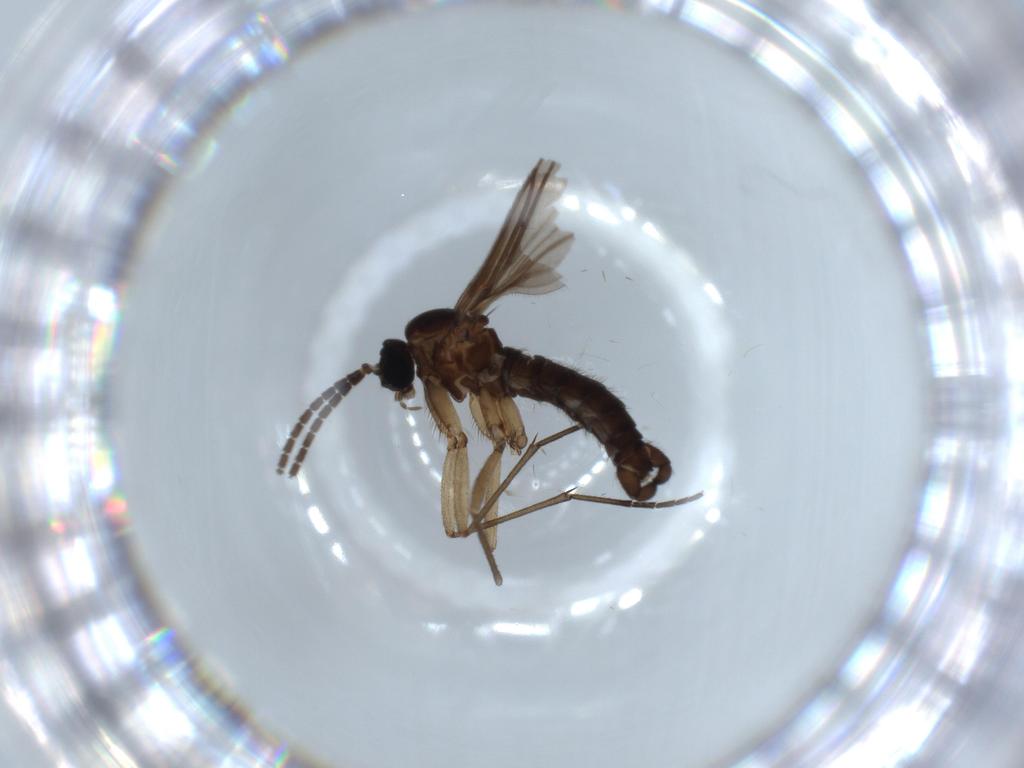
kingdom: Animalia
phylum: Arthropoda
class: Insecta
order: Diptera
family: Sciaridae
